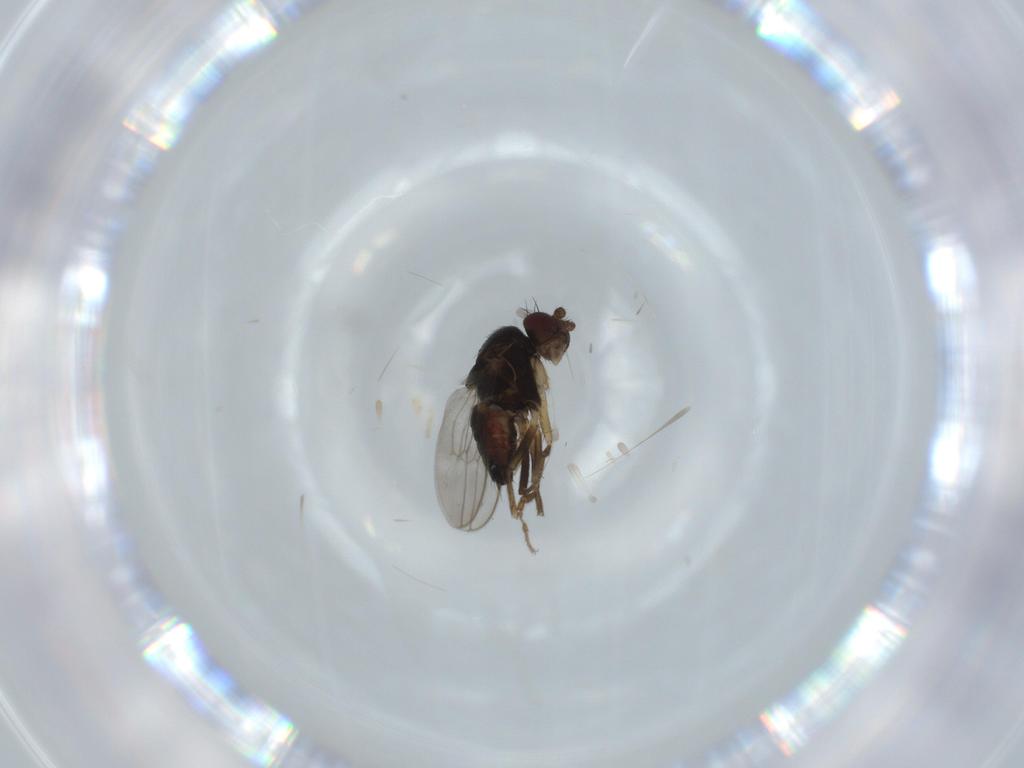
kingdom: Animalia
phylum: Arthropoda
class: Insecta
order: Diptera
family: Sphaeroceridae
